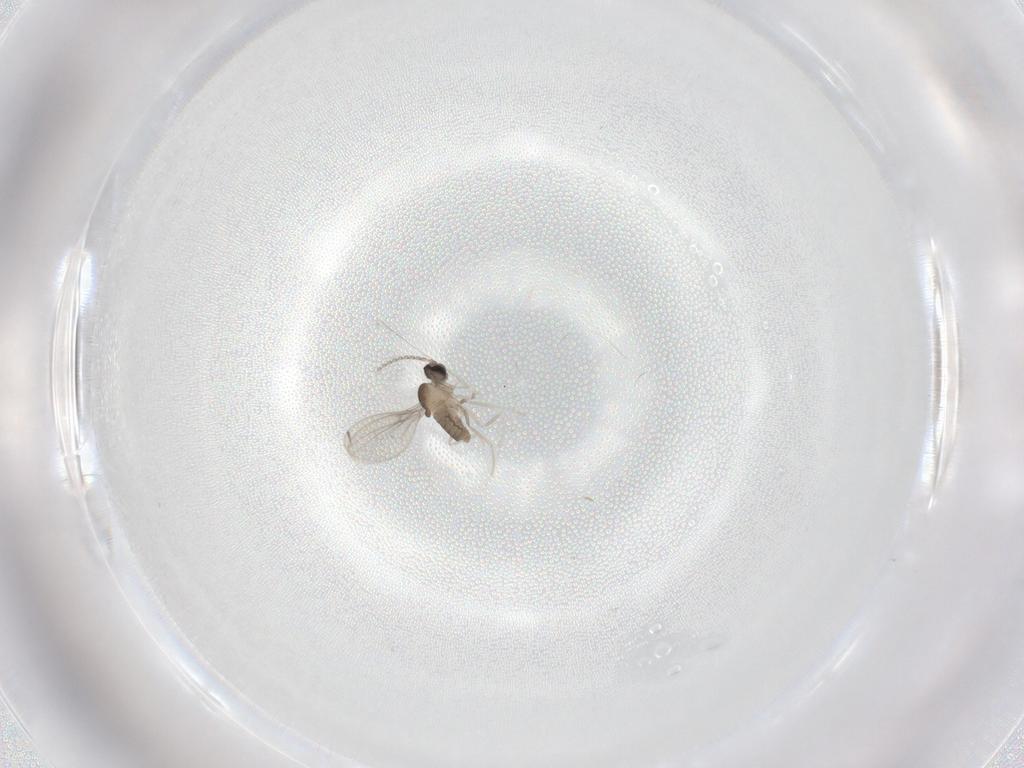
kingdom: Animalia
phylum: Arthropoda
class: Insecta
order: Diptera
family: Cecidomyiidae
